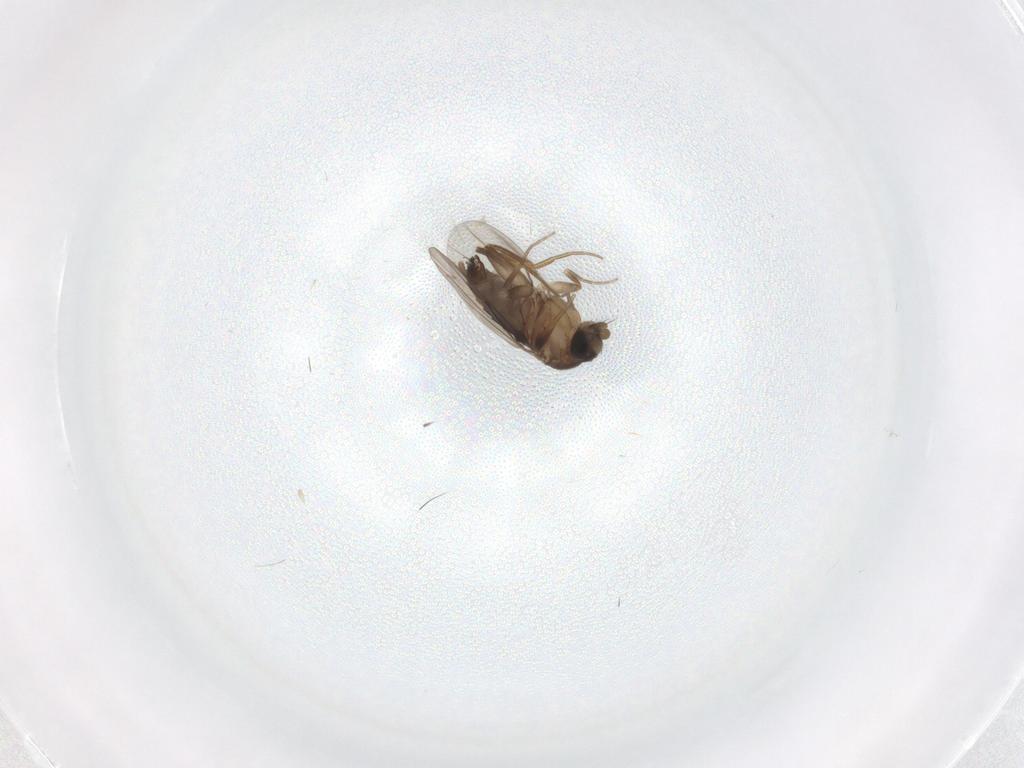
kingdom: Animalia
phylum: Arthropoda
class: Insecta
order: Diptera
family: Phoridae
